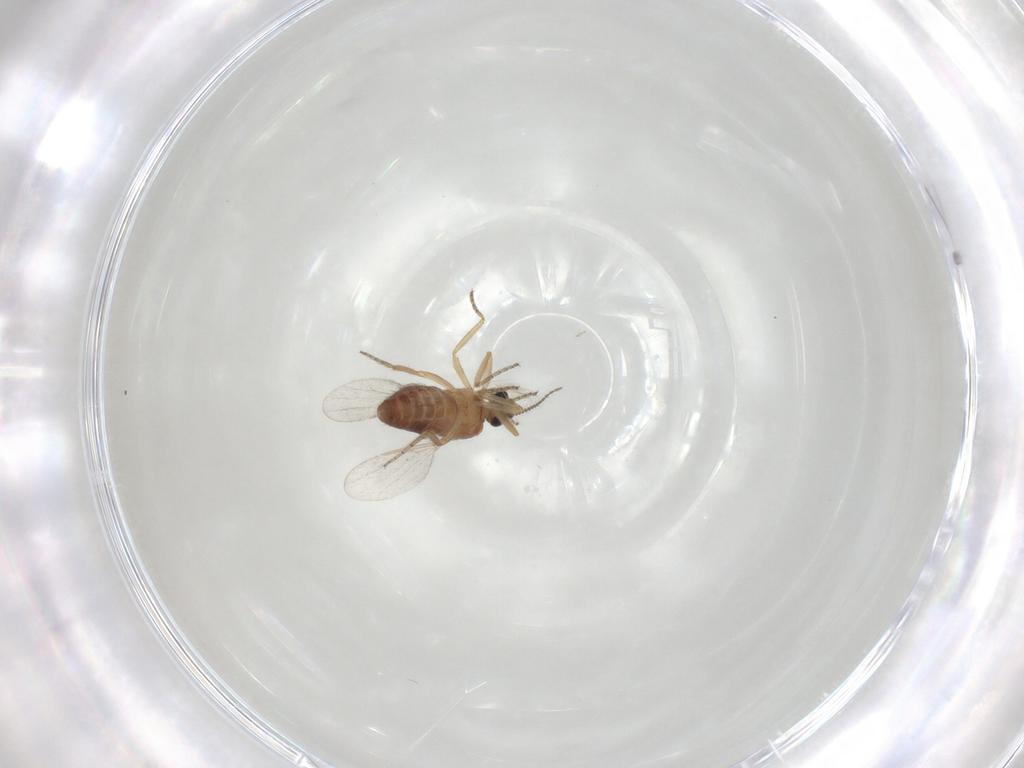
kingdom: Animalia
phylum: Arthropoda
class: Insecta
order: Diptera
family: Ceratopogonidae
